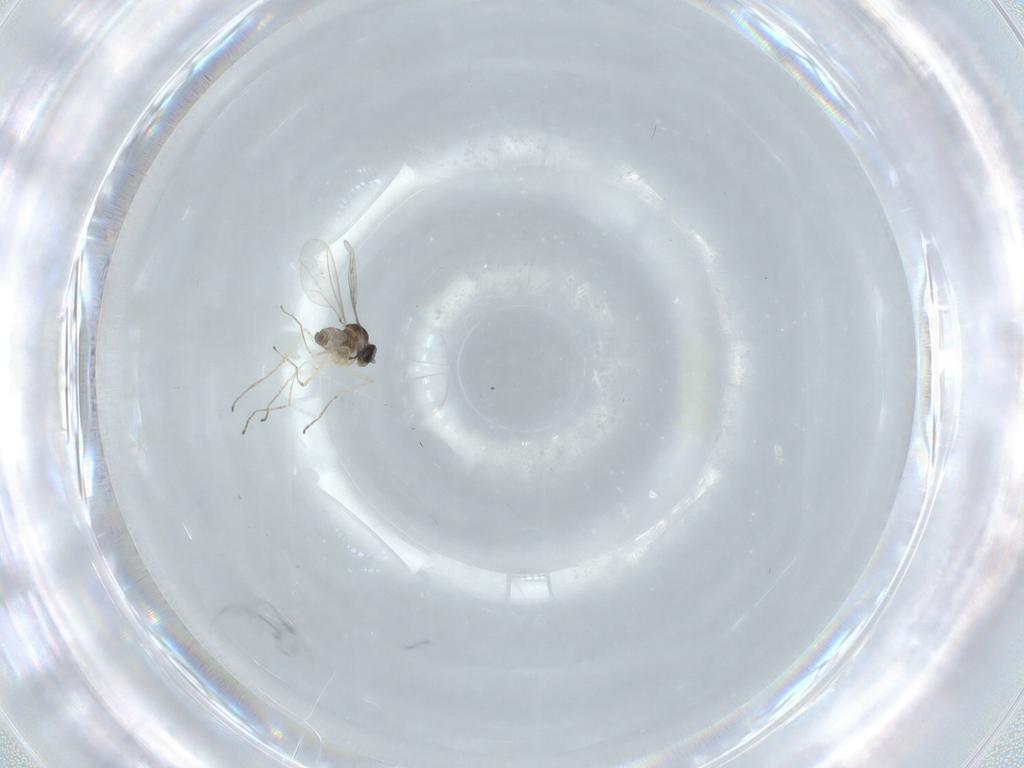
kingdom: Animalia
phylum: Arthropoda
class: Insecta
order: Diptera
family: Cecidomyiidae
